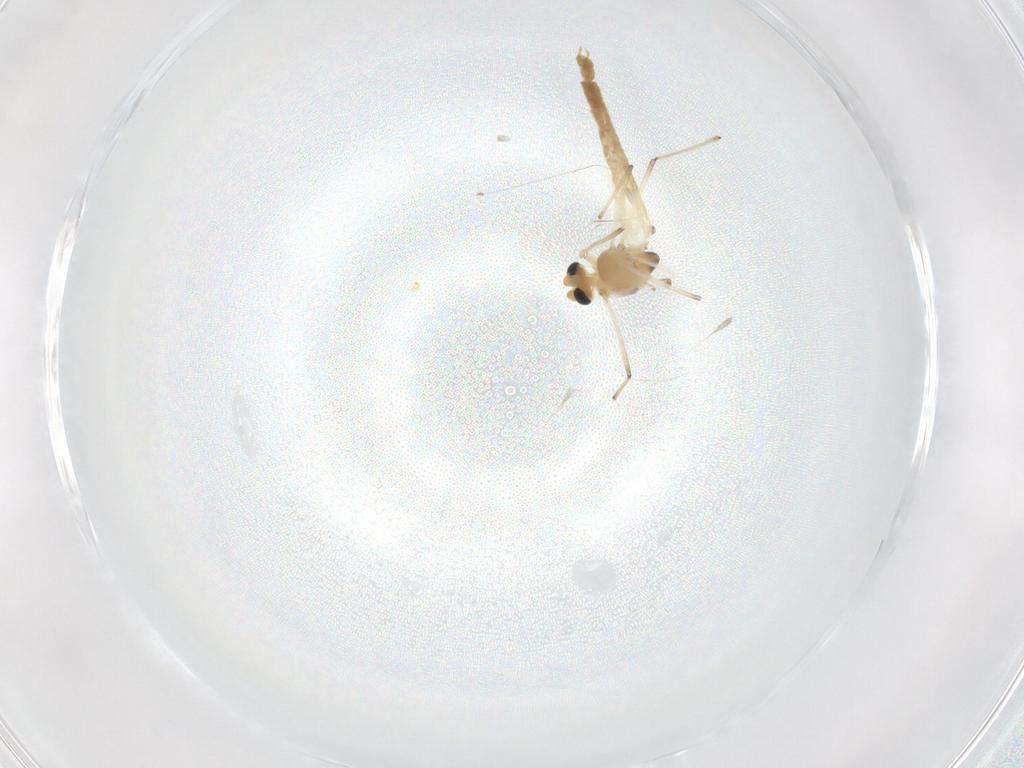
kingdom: Animalia
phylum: Arthropoda
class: Insecta
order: Diptera
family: Chironomidae
